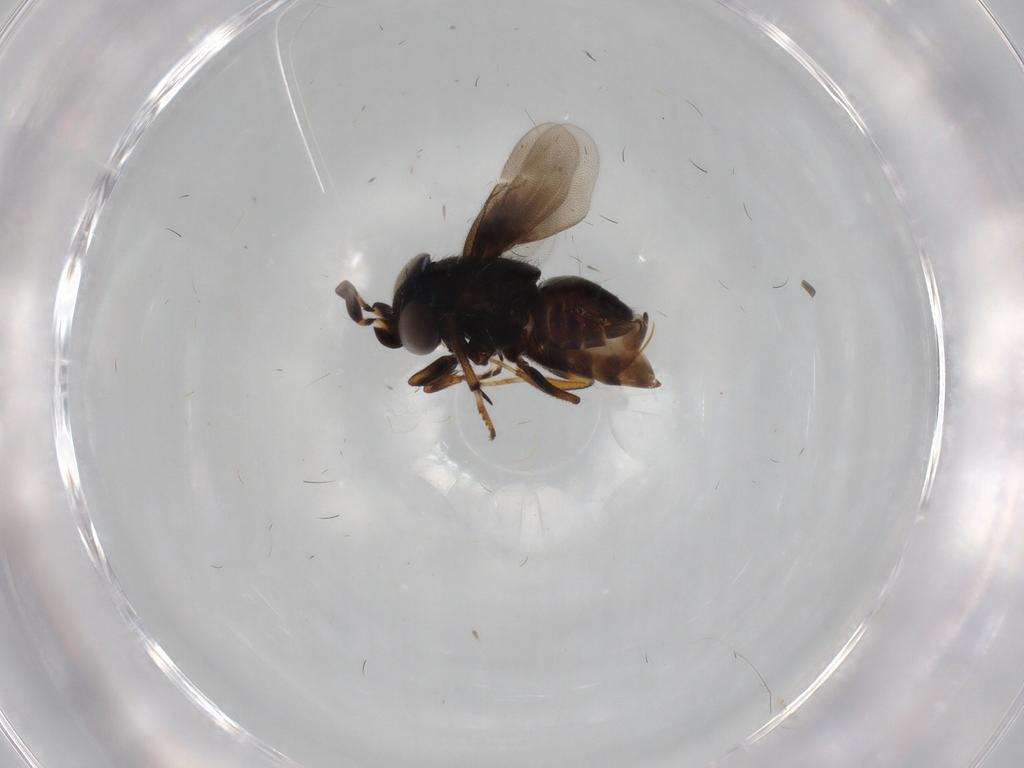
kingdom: Animalia
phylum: Arthropoda
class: Insecta
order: Hymenoptera
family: Encyrtidae
